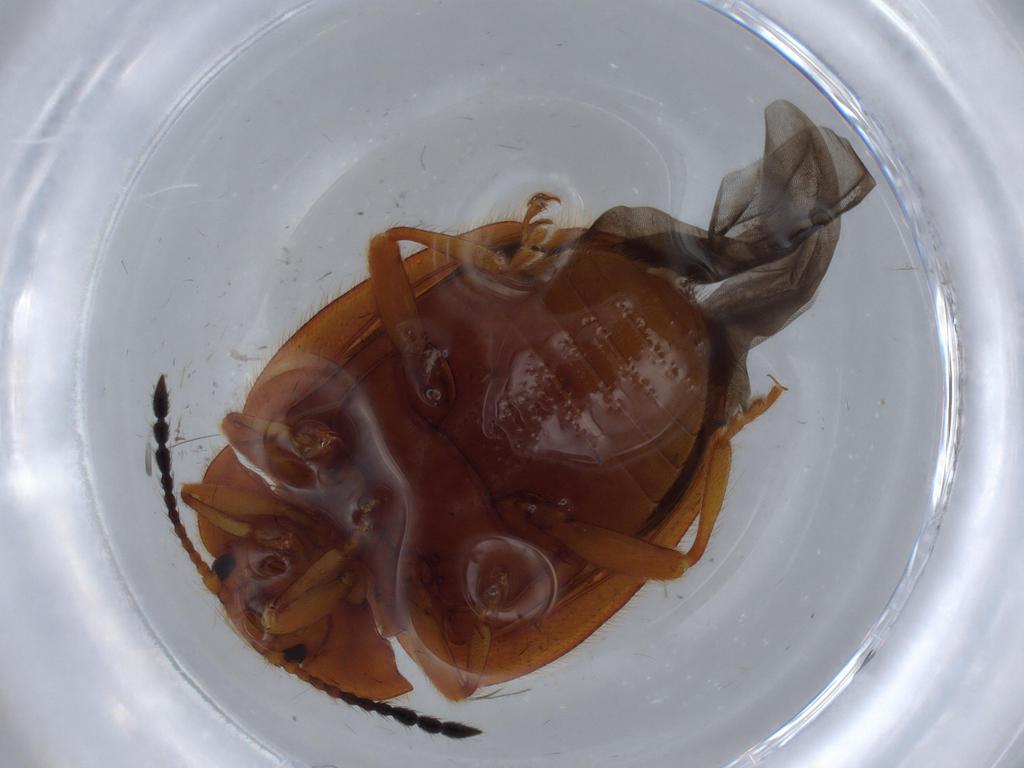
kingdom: Animalia
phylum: Arthropoda
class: Insecta
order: Coleoptera
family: Chrysomelidae
